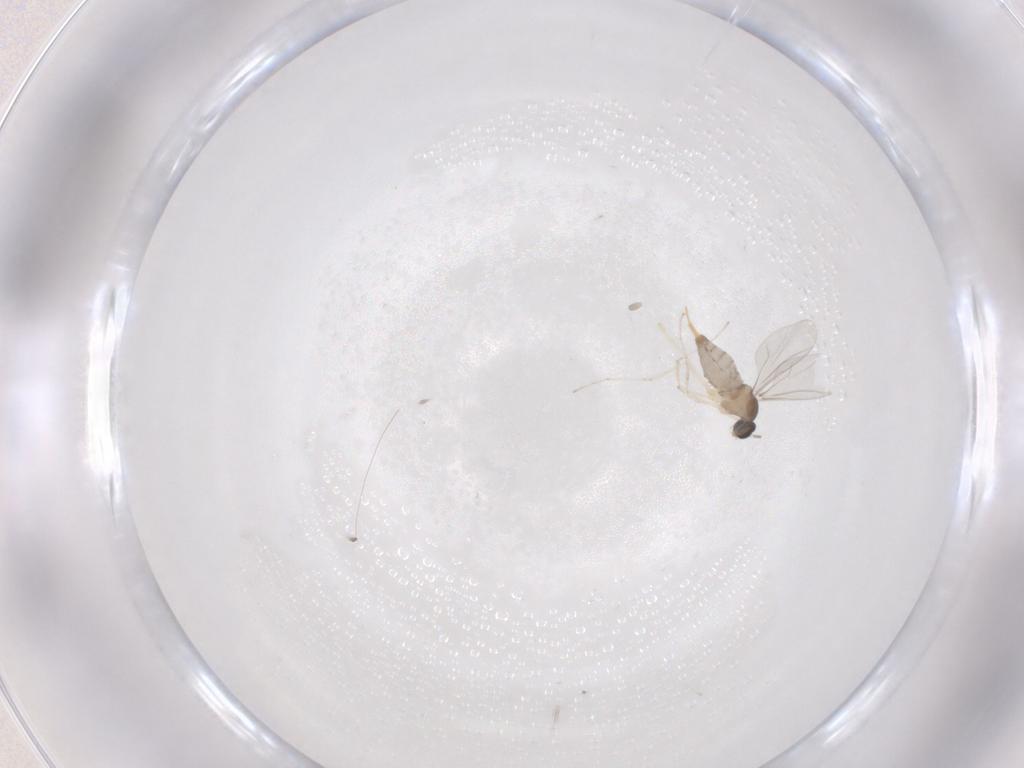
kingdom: Animalia
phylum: Arthropoda
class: Insecta
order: Diptera
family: Cecidomyiidae
